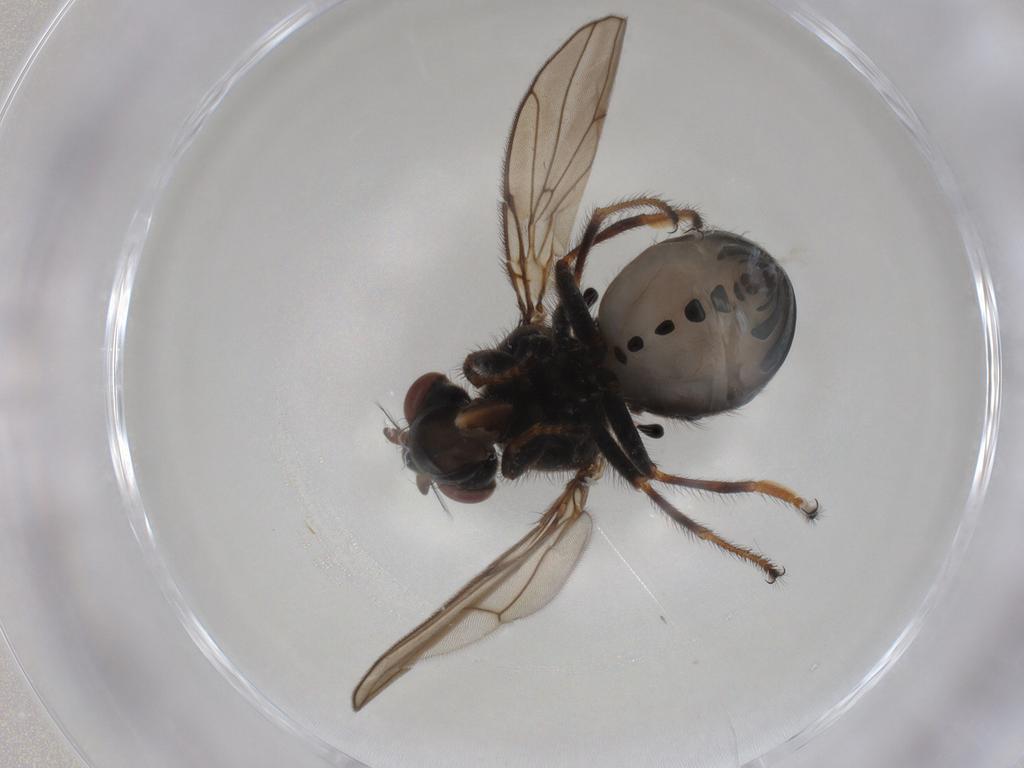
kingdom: Animalia
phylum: Arthropoda
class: Insecta
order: Diptera
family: Ephydridae
